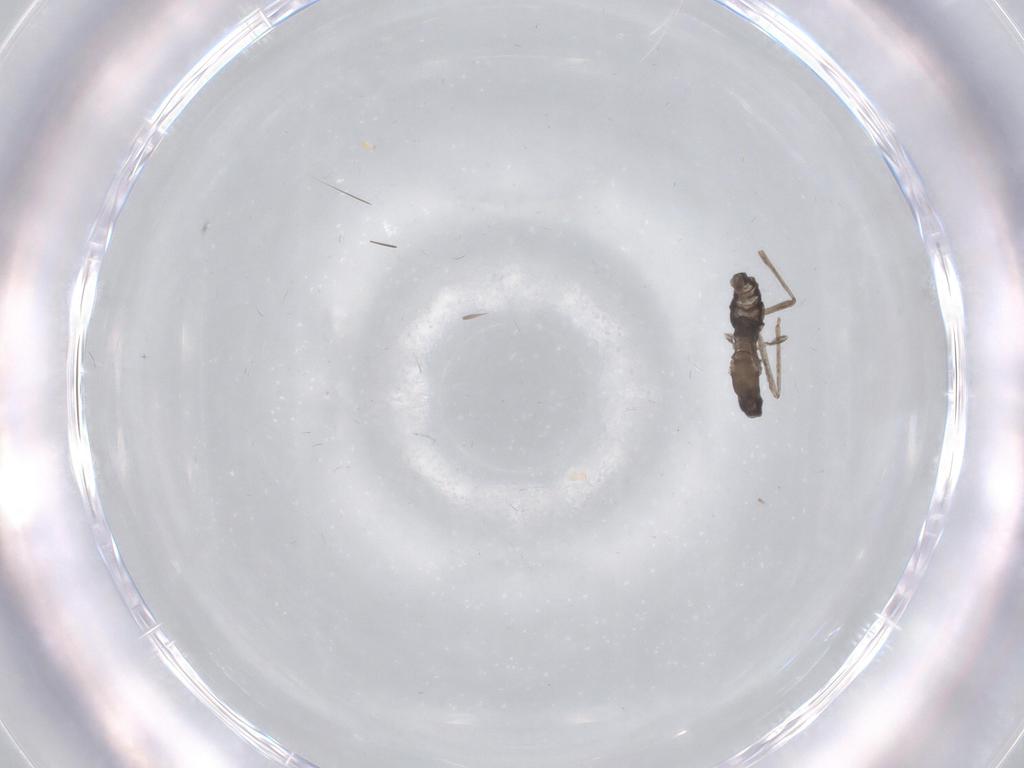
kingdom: Animalia
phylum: Arthropoda
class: Insecta
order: Diptera
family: Cecidomyiidae
